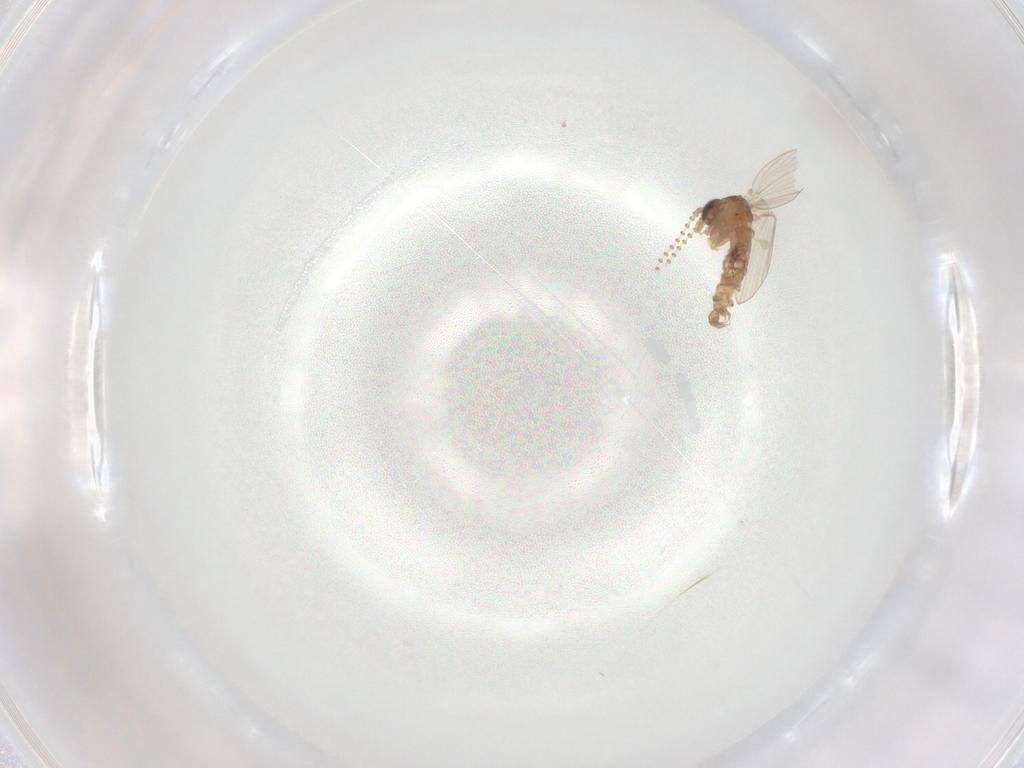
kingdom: Animalia
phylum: Arthropoda
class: Insecta
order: Diptera
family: Psychodidae
